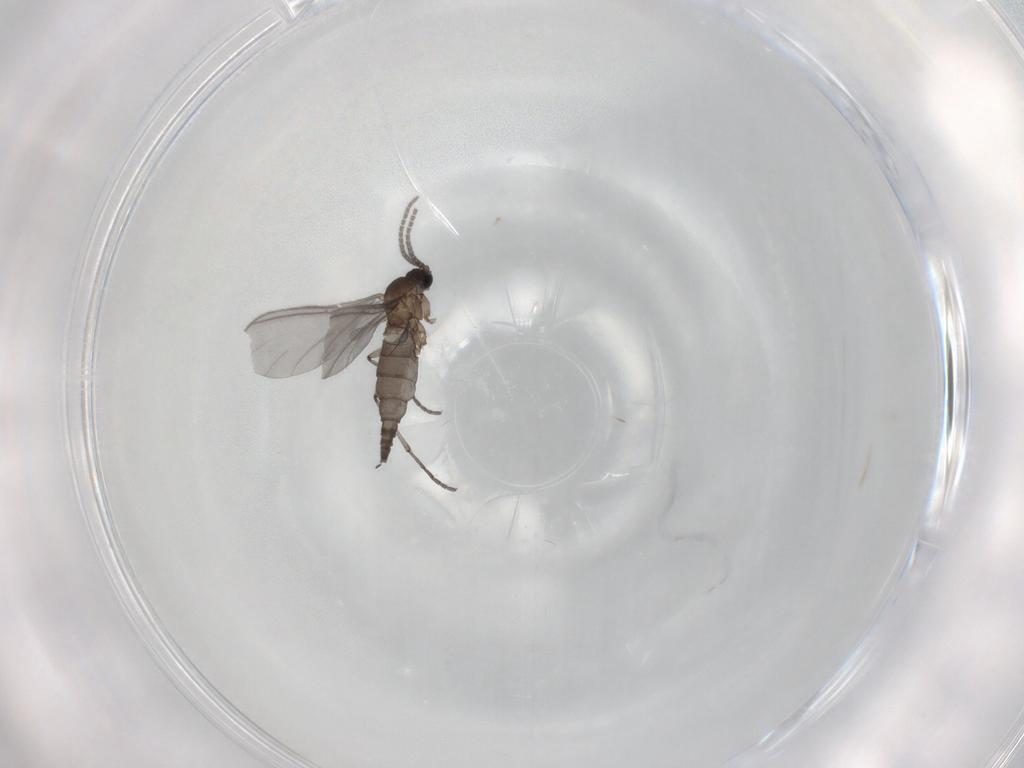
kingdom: Animalia
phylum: Arthropoda
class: Insecta
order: Diptera
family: Sciaridae
